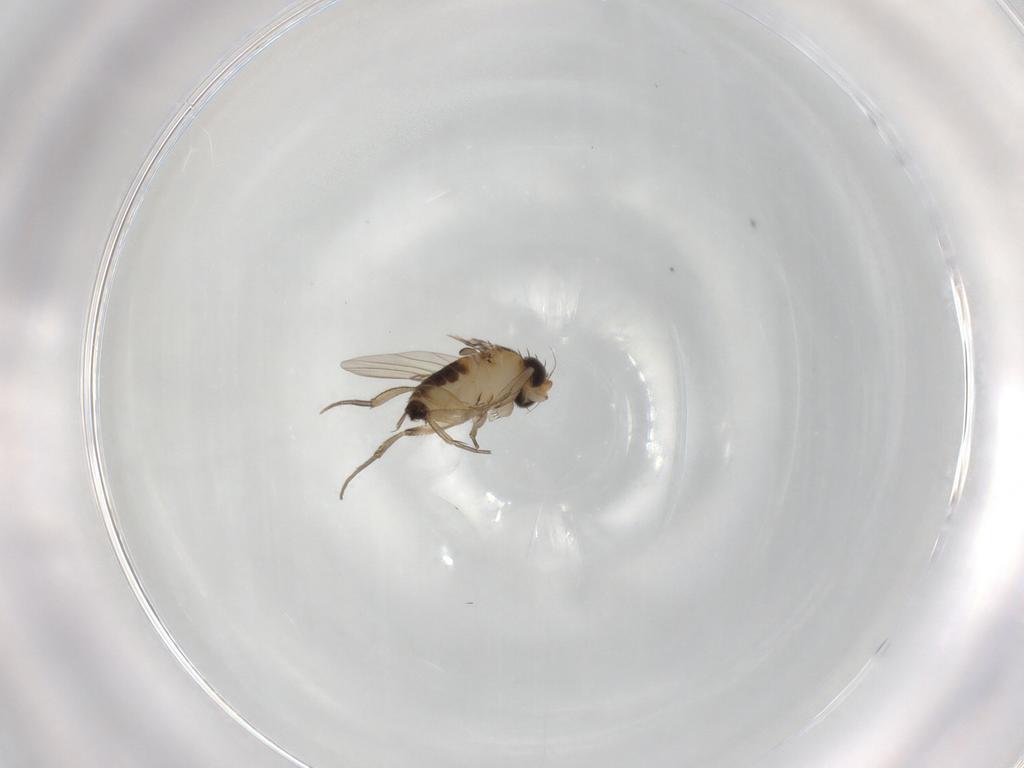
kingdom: Animalia
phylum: Arthropoda
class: Insecta
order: Diptera
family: Phoridae
